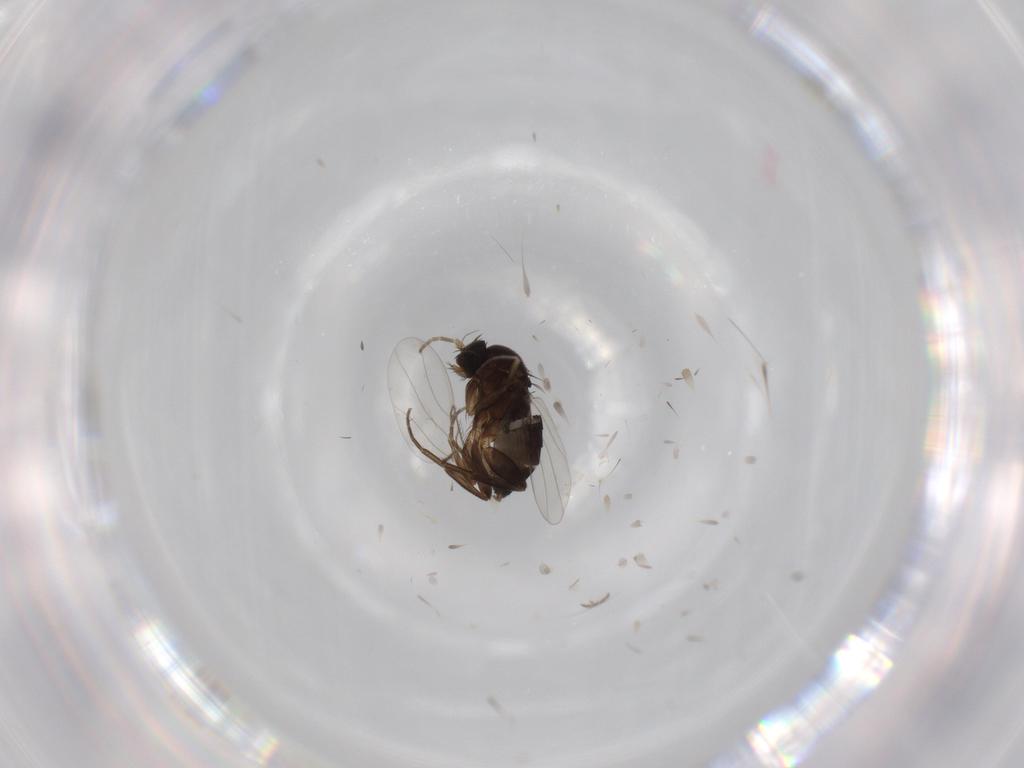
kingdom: Animalia
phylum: Arthropoda
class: Insecta
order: Diptera
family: Phoridae
